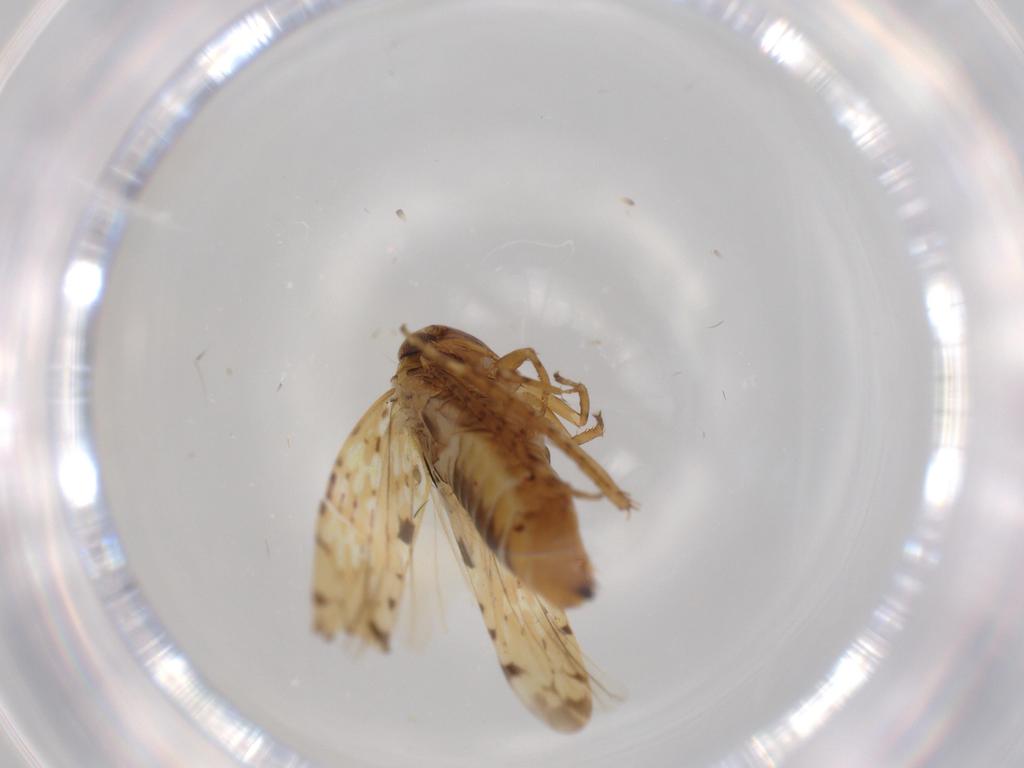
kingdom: Animalia
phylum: Arthropoda
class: Insecta
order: Hemiptera
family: Cicadellidae
